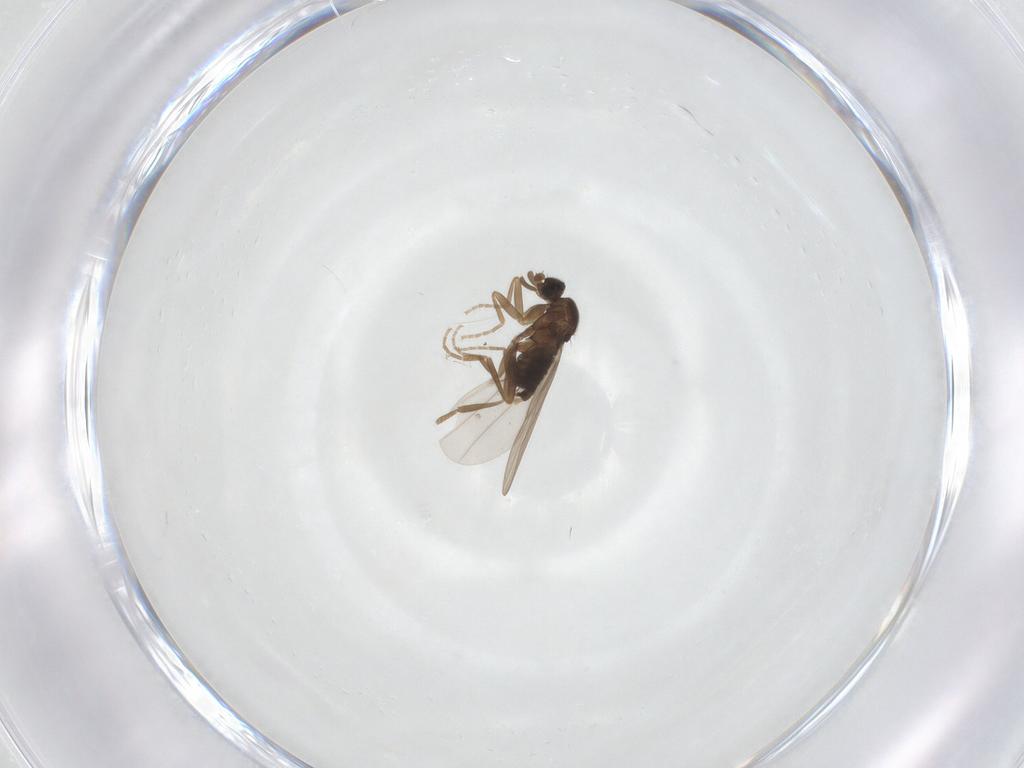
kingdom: Animalia
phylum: Arthropoda
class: Insecta
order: Diptera
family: Phoridae
